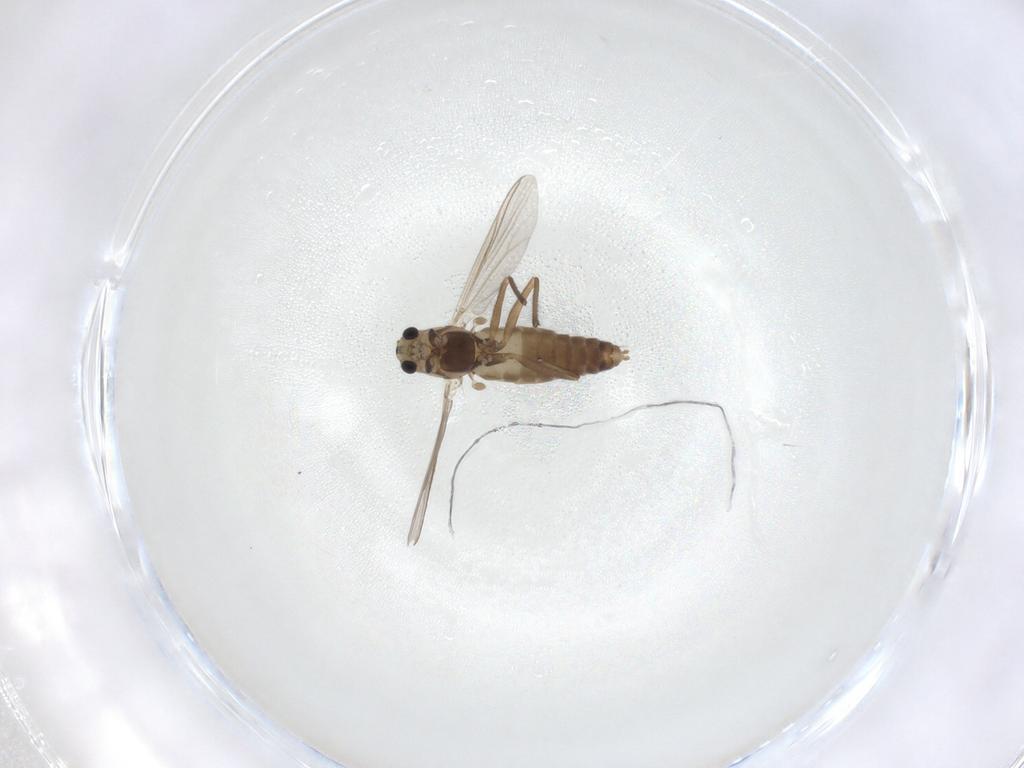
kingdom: Animalia
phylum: Arthropoda
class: Insecta
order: Diptera
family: Chironomidae
